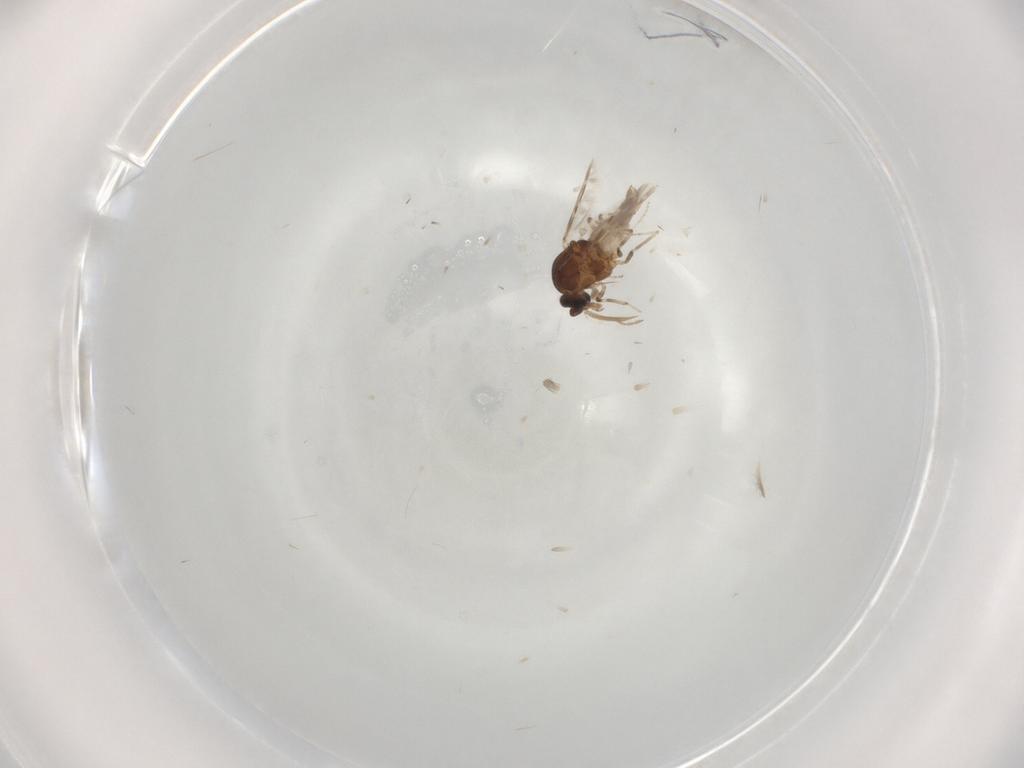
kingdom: Animalia
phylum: Arthropoda
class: Insecta
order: Diptera
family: Ceratopogonidae
